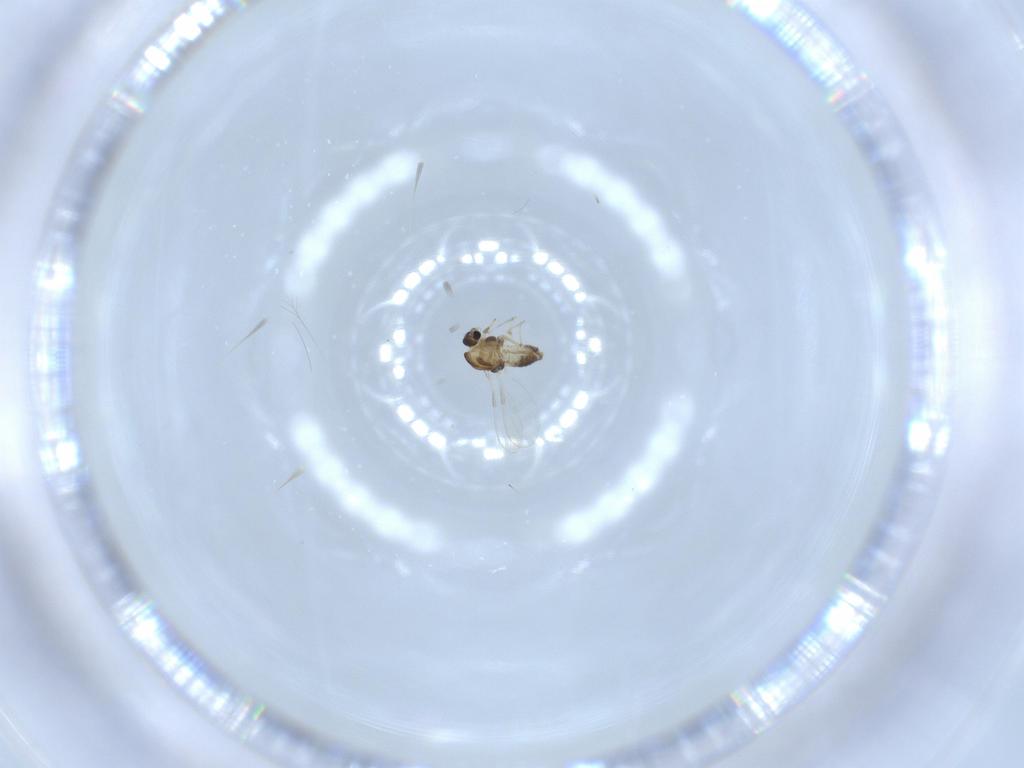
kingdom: Animalia
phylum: Arthropoda
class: Insecta
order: Diptera
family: Chironomidae
